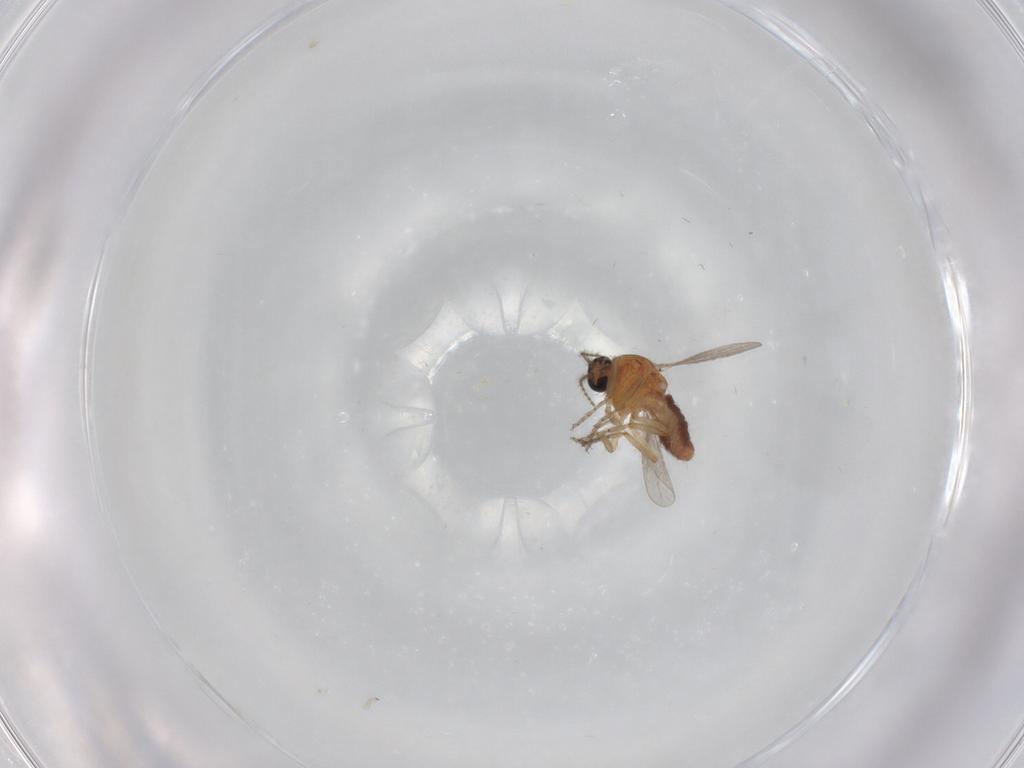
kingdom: Animalia
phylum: Arthropoda
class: Insecta
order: Diptera
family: Ceratopogonidae
